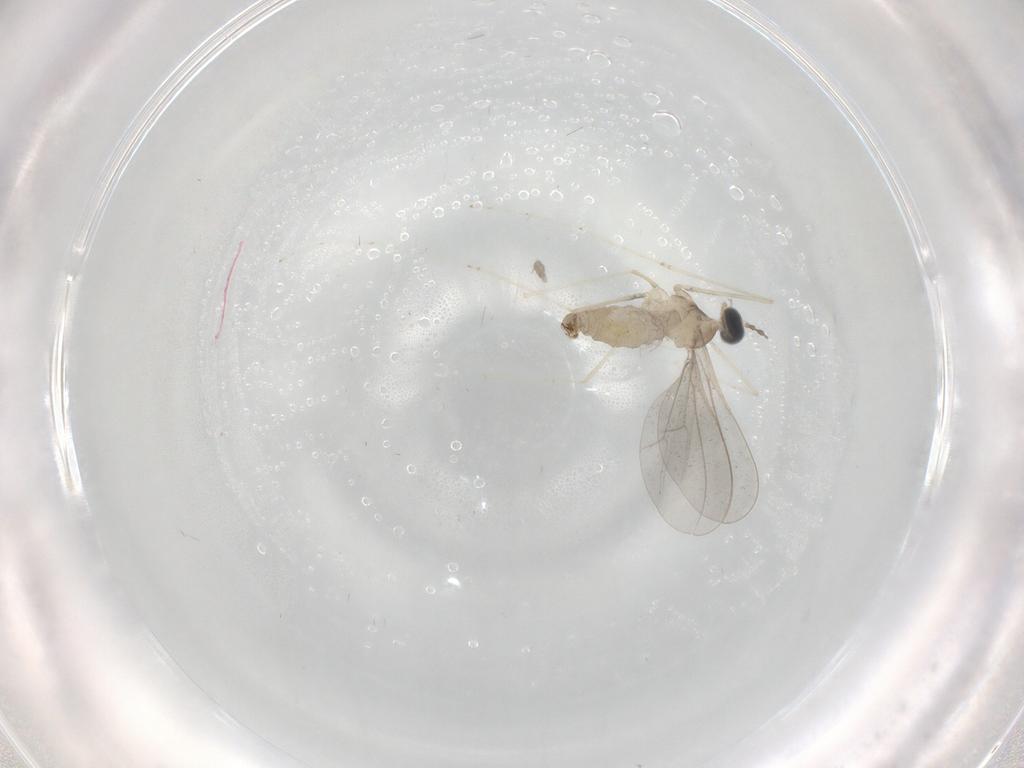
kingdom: Animalia
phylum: Arthropoda
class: Insecta
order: Diptera
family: Cecidomyiidae
